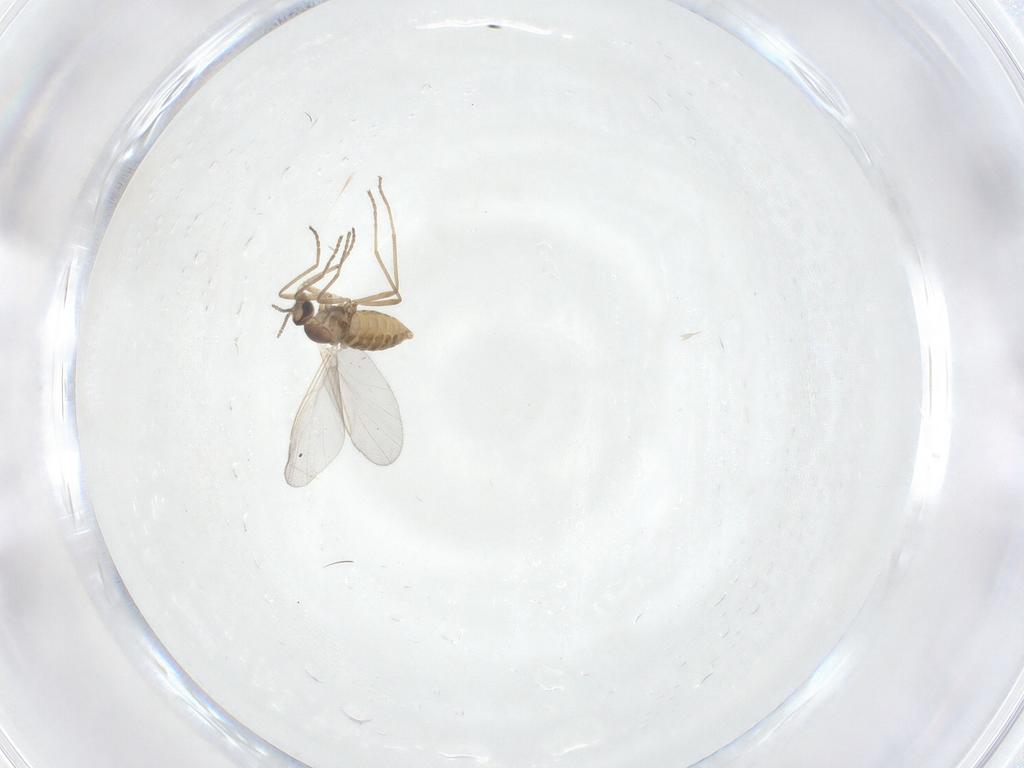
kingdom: Animalia
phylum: Arthropoda
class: Insecta
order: Diptera
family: Cecidomyiidae
